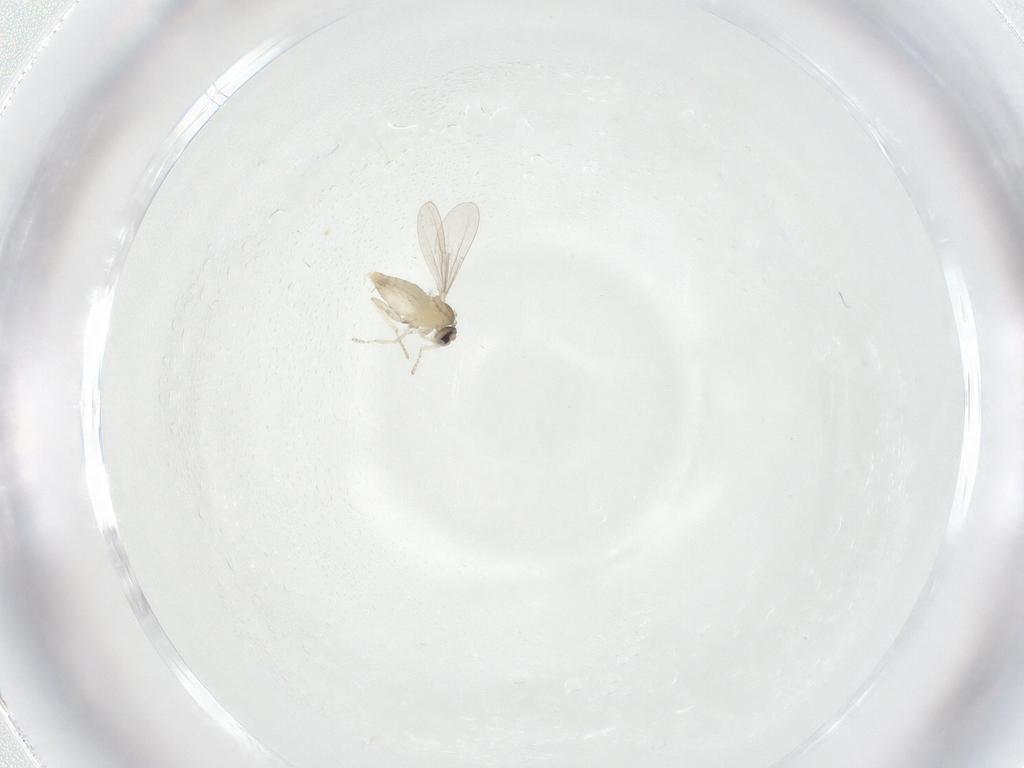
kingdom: Animalia
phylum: Arthropoda
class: Insecta
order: Diptera
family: Cecidomyiidae
